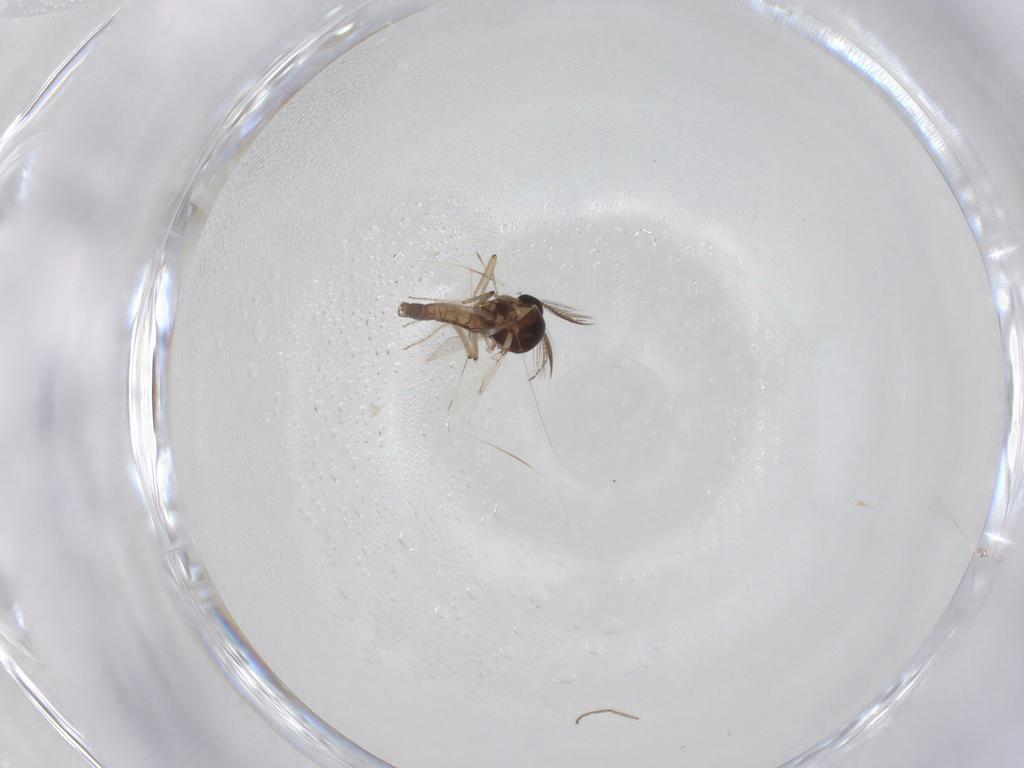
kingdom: Animalia
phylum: Arthropoda
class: Insecta
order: Diptera
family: Ceratopogonidae
